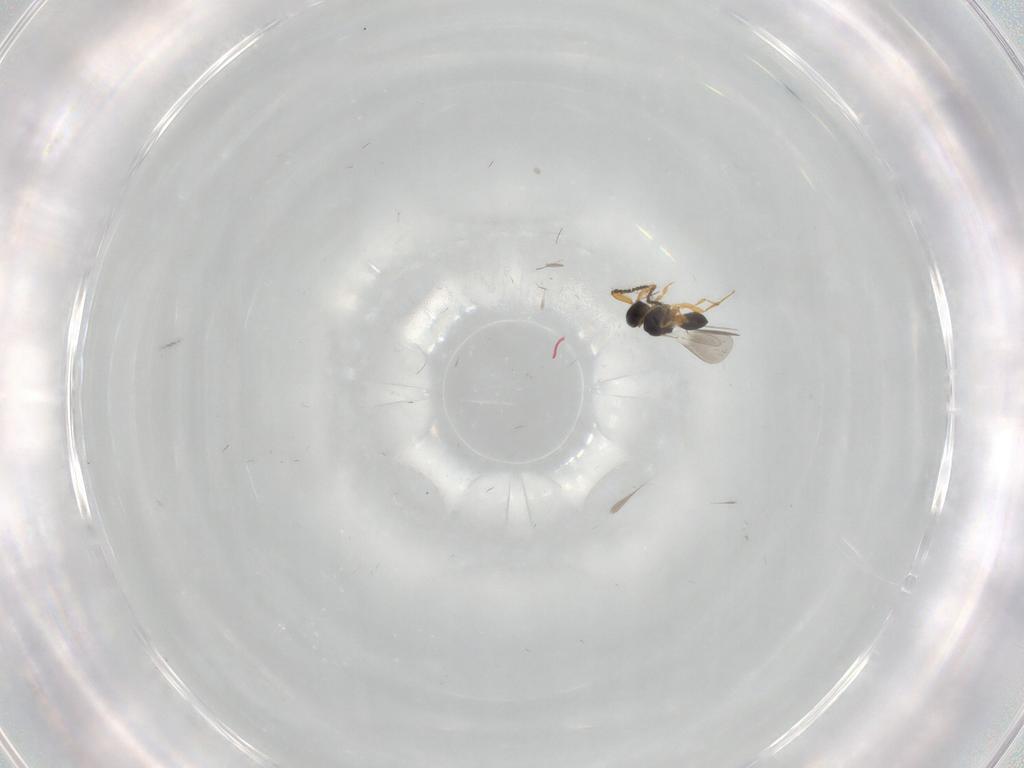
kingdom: Animalia
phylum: Arthropoda
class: Insecta
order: Hymenoptera
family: Platygastridae
